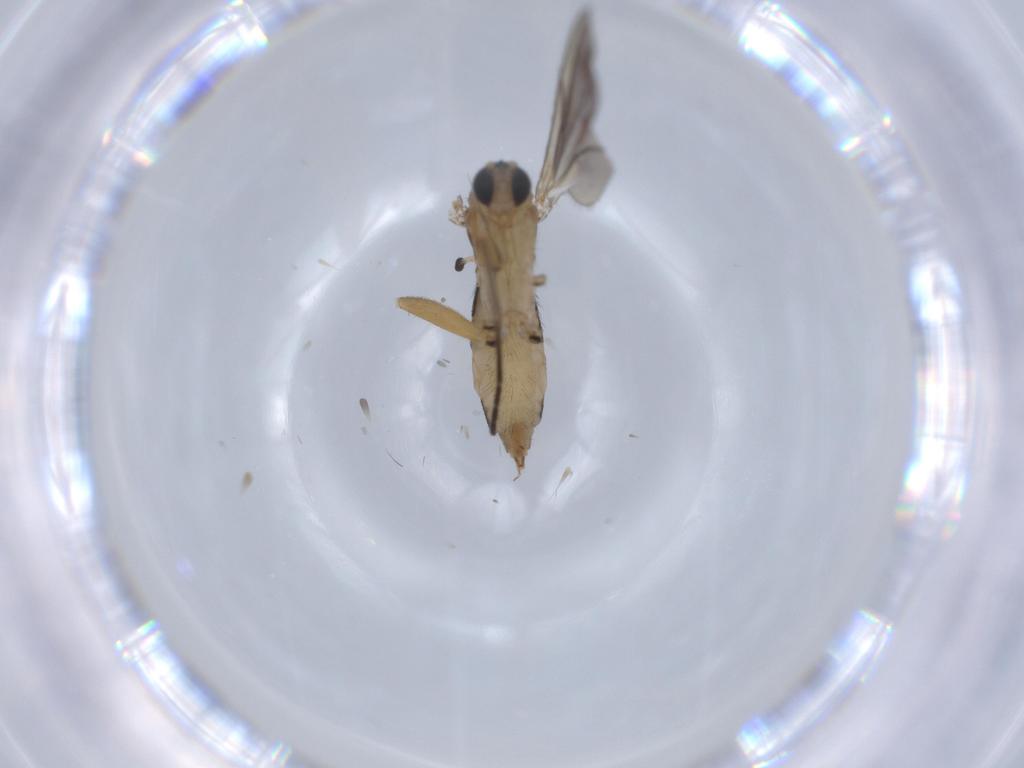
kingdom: Animalia
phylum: Arthropoda
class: Insecta
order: Diptera
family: Sciaridae
